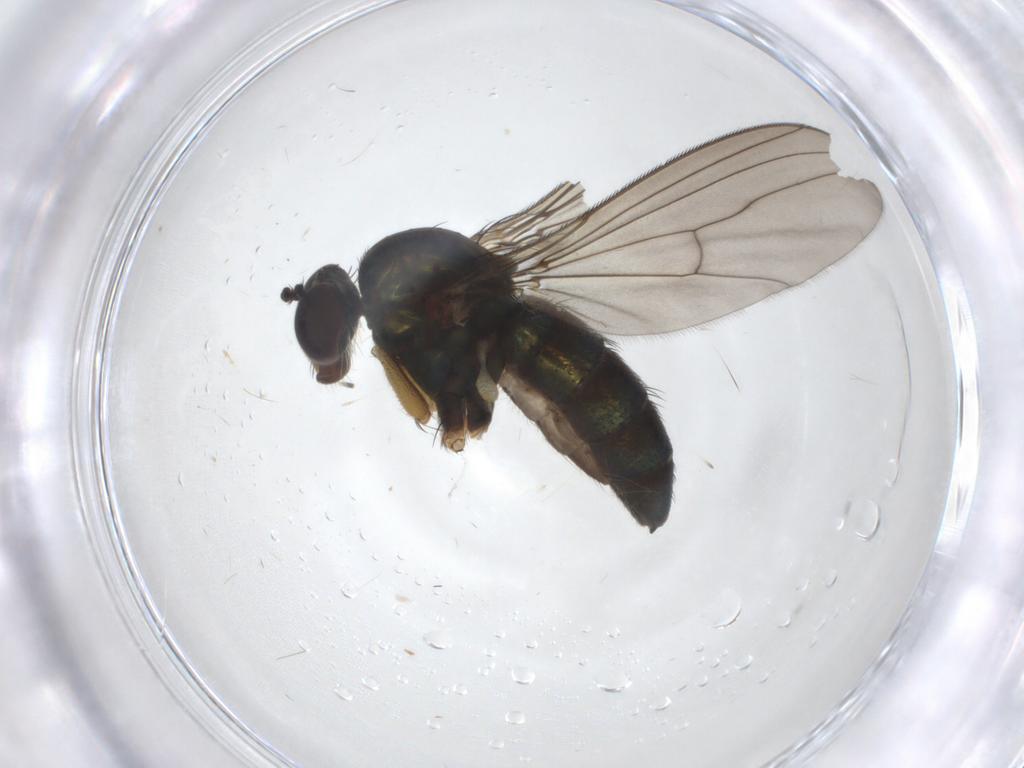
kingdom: Animalia
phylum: Arthropoda
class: Insecta
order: Diptera
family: Dolichopodidae
